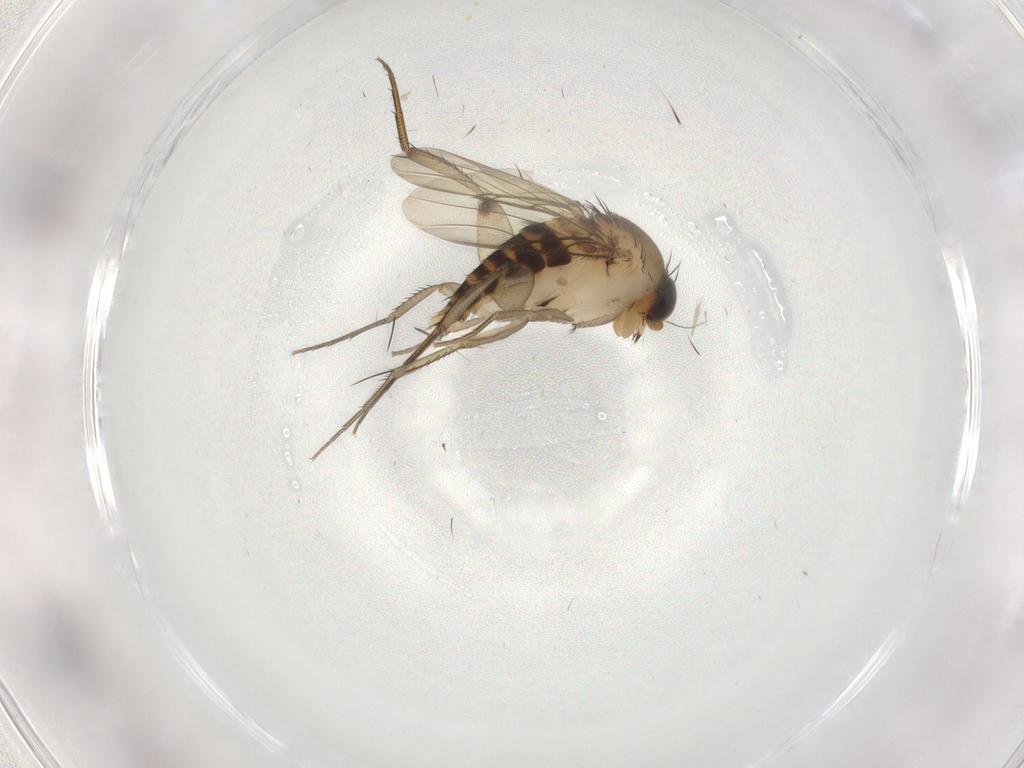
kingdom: Animalia
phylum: Arthropoda
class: Insecta
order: Diptera
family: Phoridae
